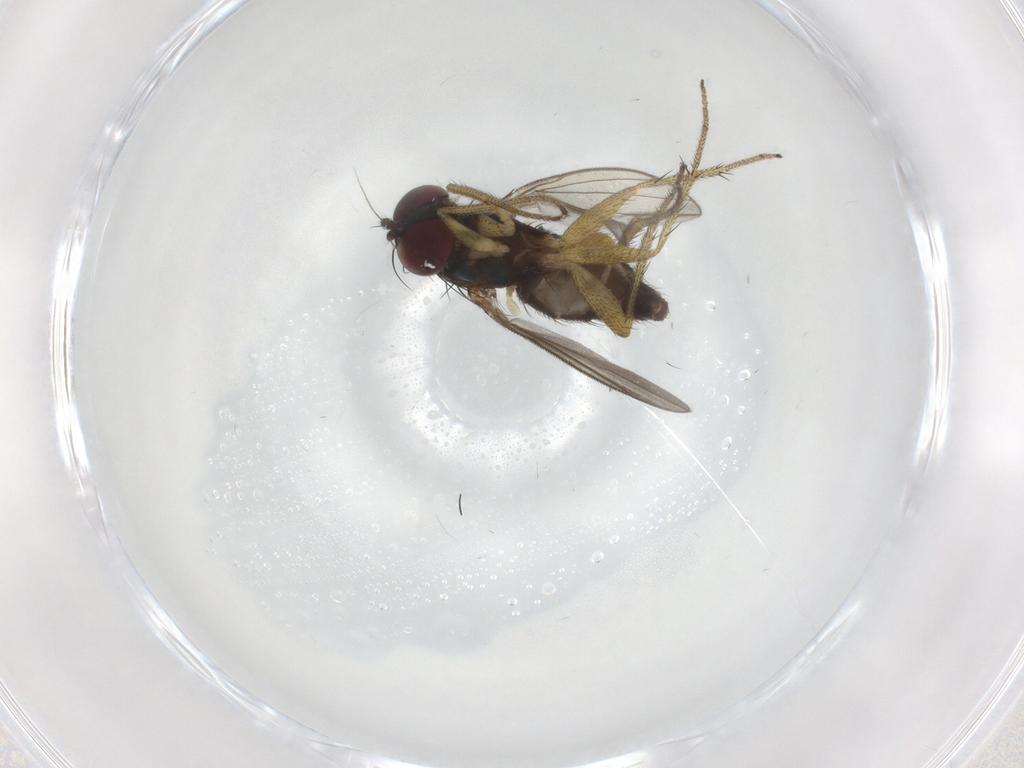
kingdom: Animalia
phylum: Arthropoda
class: Insecta
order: Diptera
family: Dolichopodidae
